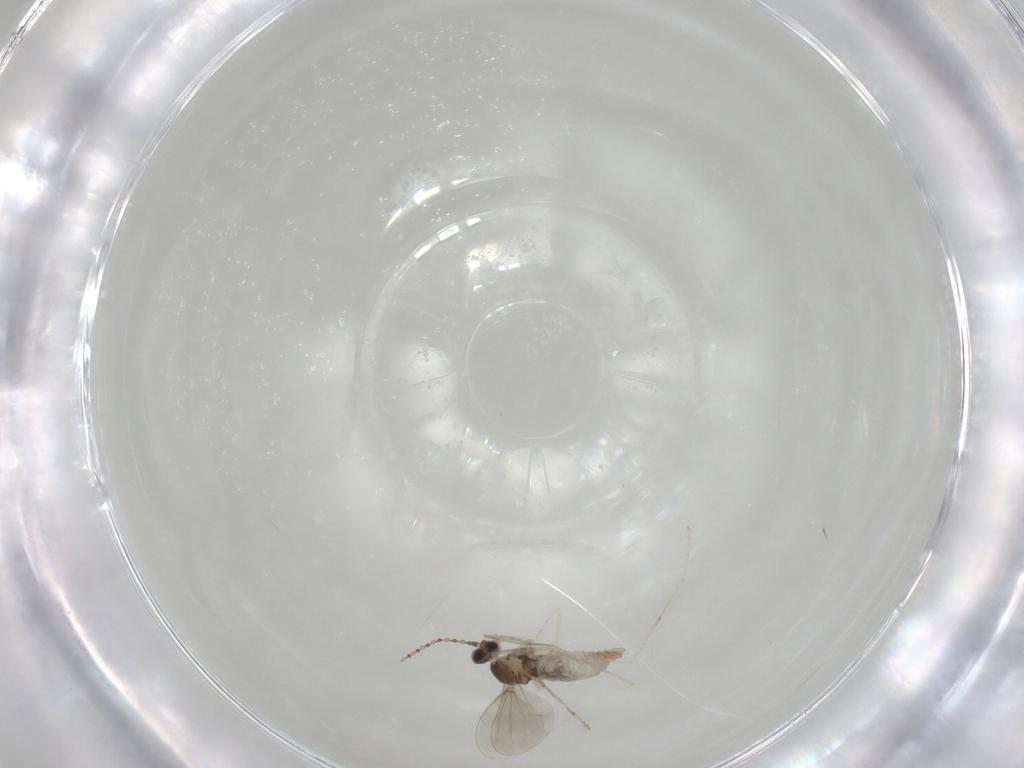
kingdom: Animalia
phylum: Arthropoda
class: Insecta
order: Diptera
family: Cecidomyiidae
